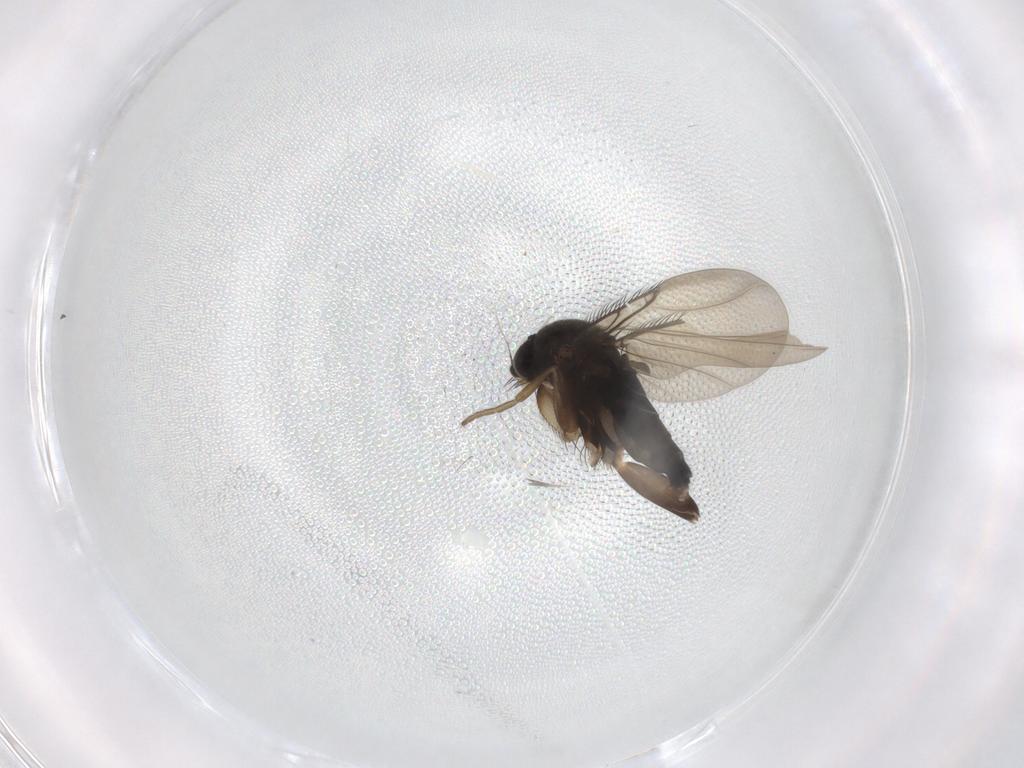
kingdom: Animalia
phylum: Arthropoda
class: Insecta
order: Diptera
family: Phoridae
